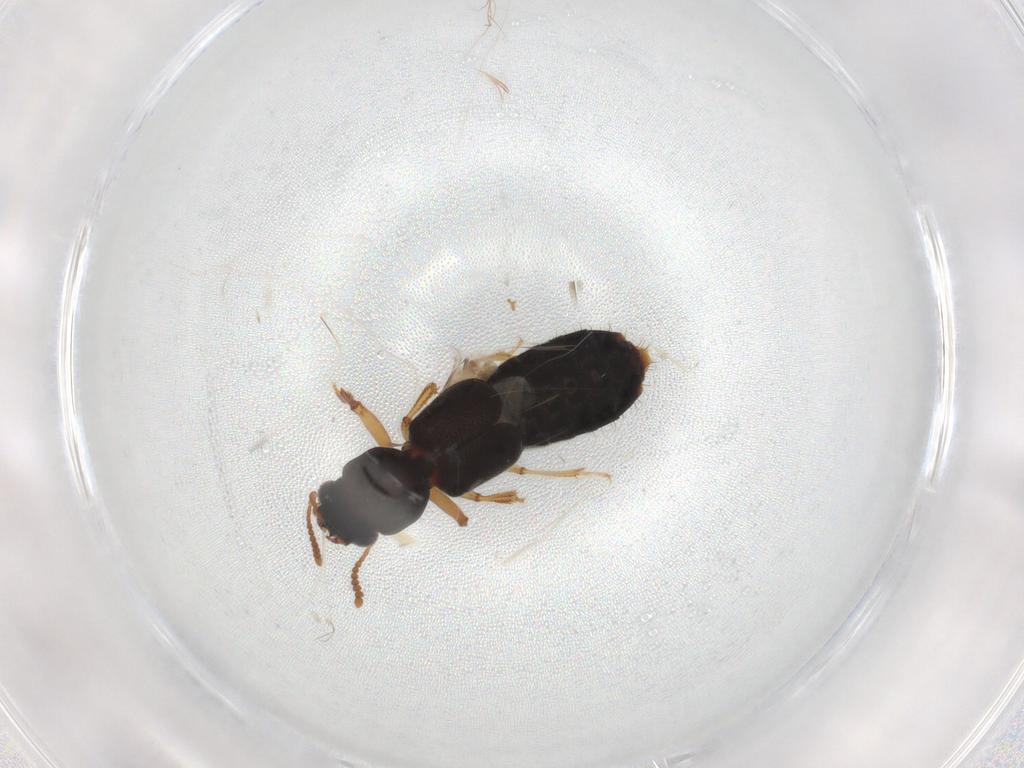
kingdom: Animalia
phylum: Arthropoda
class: Insecta
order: Coleoptera
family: Staphylinidae
